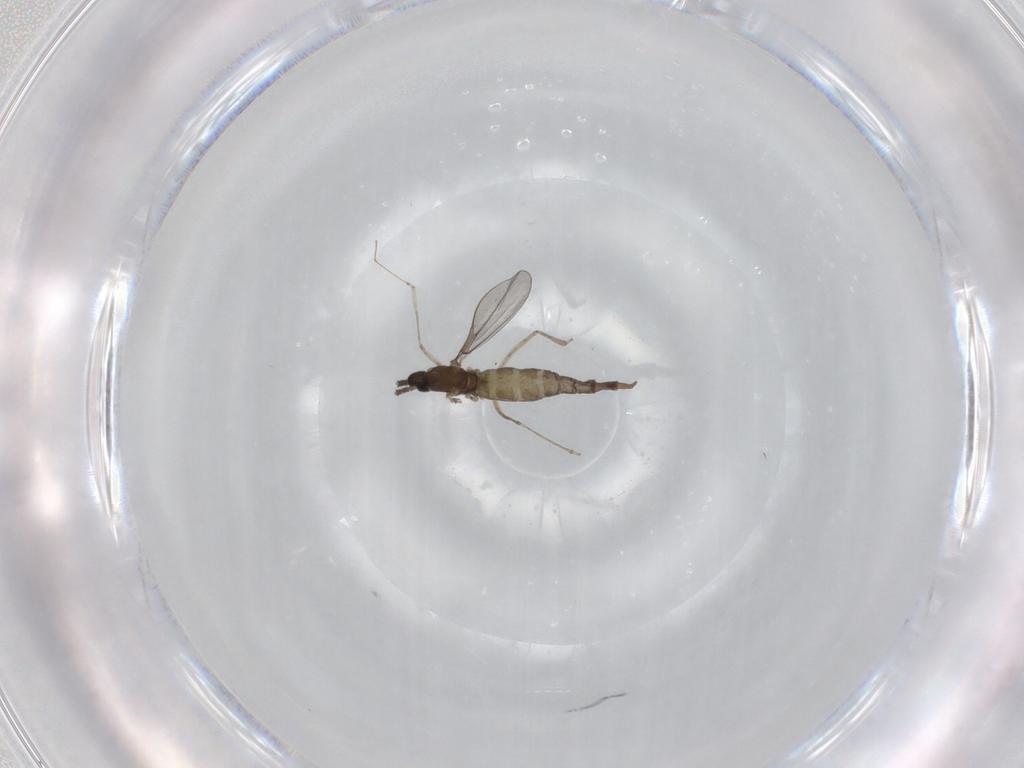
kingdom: Animalia
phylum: Arthropoda
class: Insecta
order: Diptera
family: Cecidomyiidae
